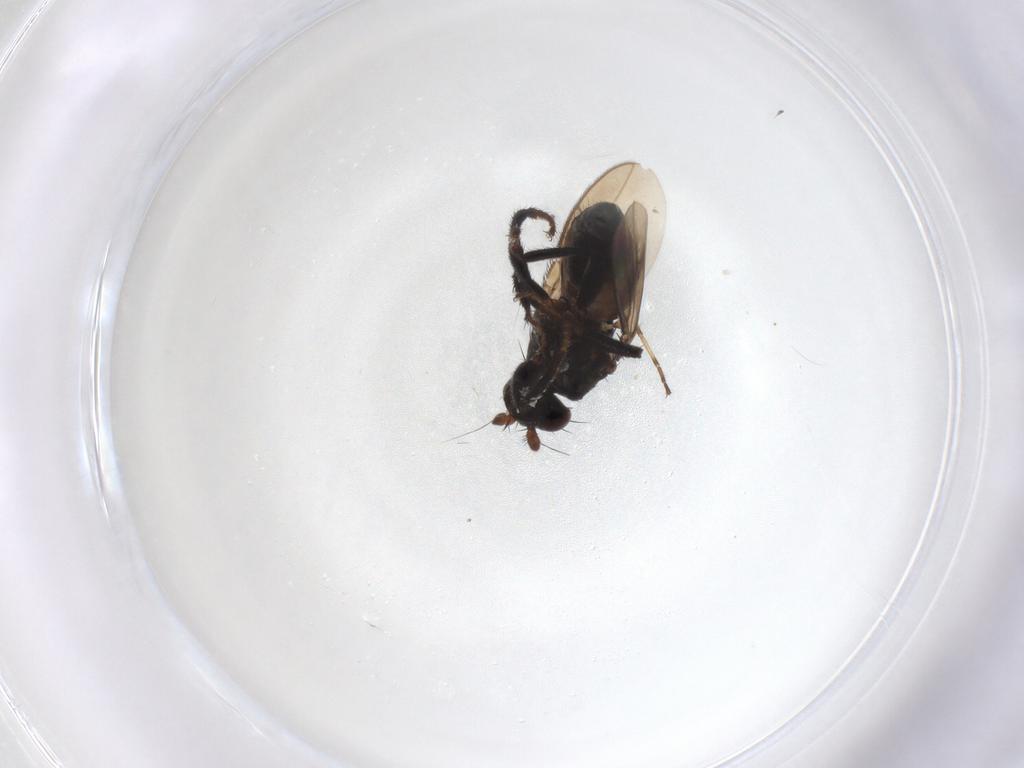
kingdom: Animalia
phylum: Arthropoda
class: Insecta
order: Diptera
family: Sphaeroceridae
